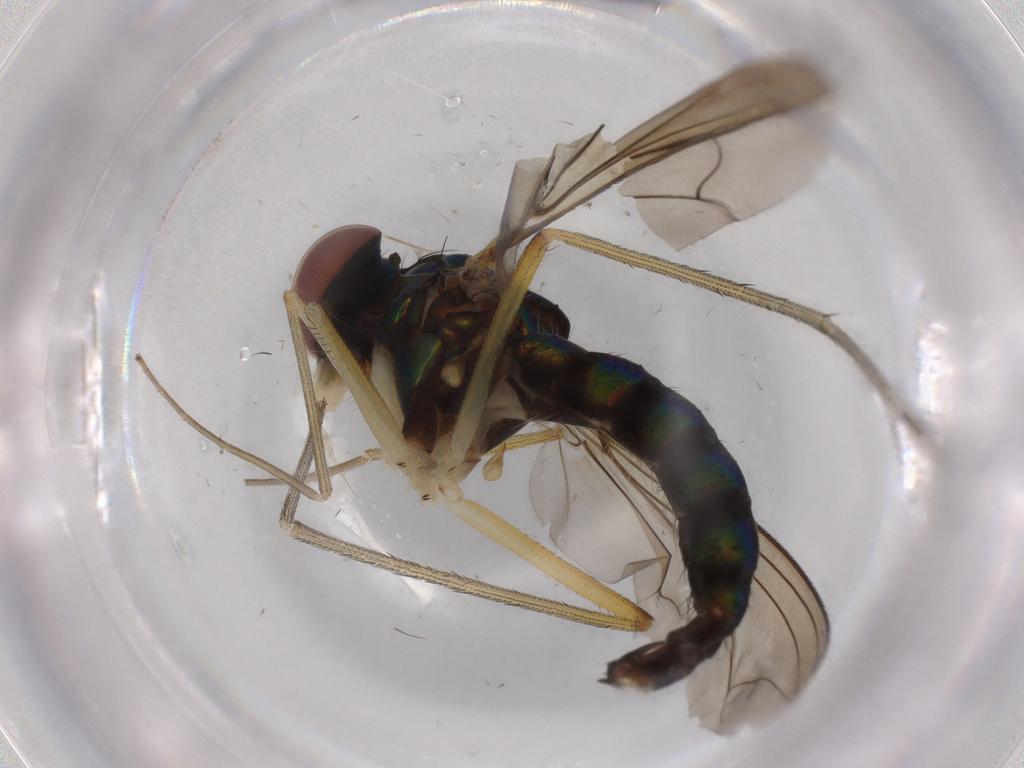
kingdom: Animalia
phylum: Arthropoda
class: Insecta
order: Diptera
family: Dolichopodidae
